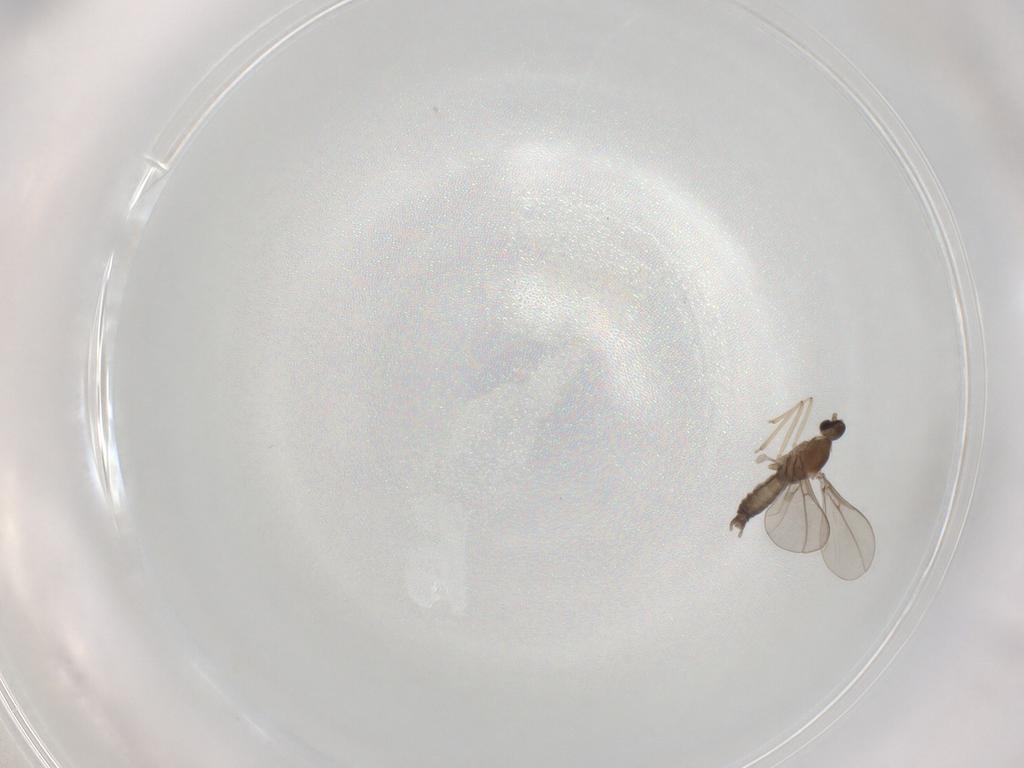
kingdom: Animalia
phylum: Arthropoda
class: Insecta
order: Diptera
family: Cecidomyiidae
